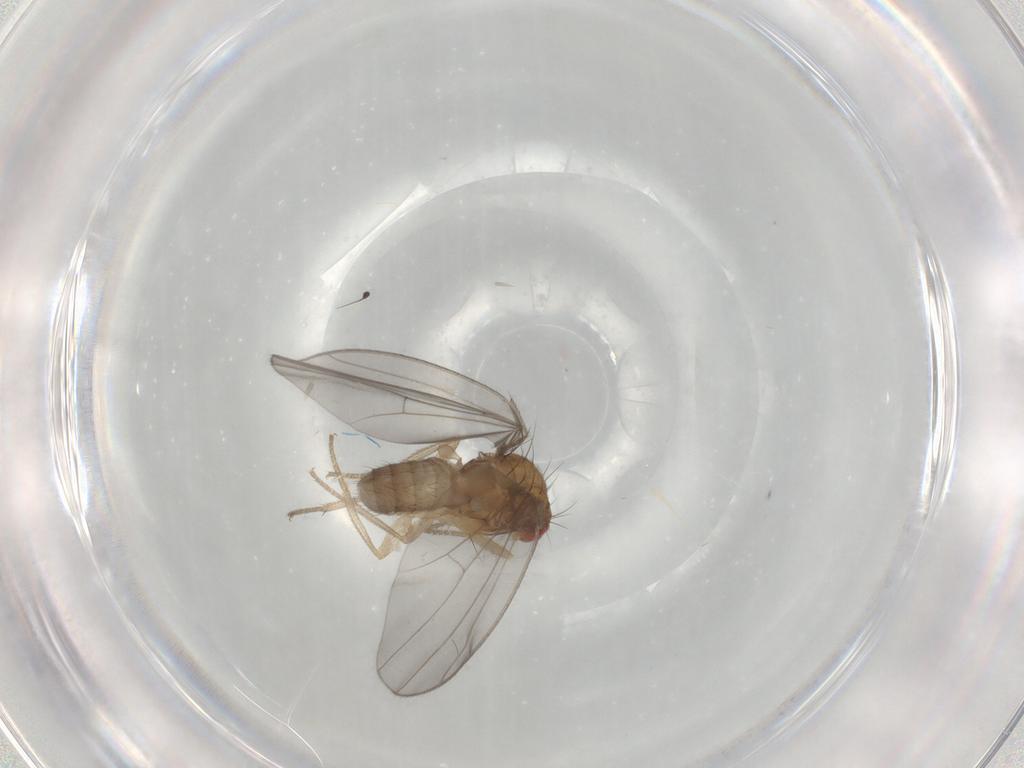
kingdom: Animalia
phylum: Arthropoda
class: Insecta
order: Diptera
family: Drosophilidae
